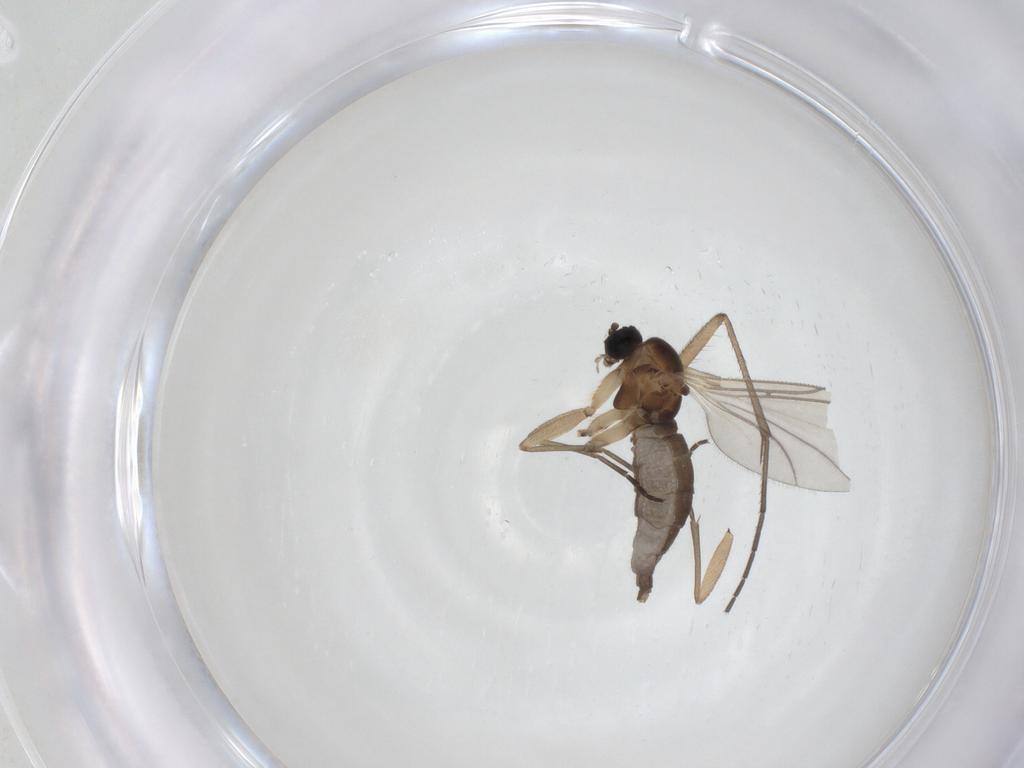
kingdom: Animalia
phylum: Arthropoda
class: Insecta
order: Diptera
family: Sciaridae
